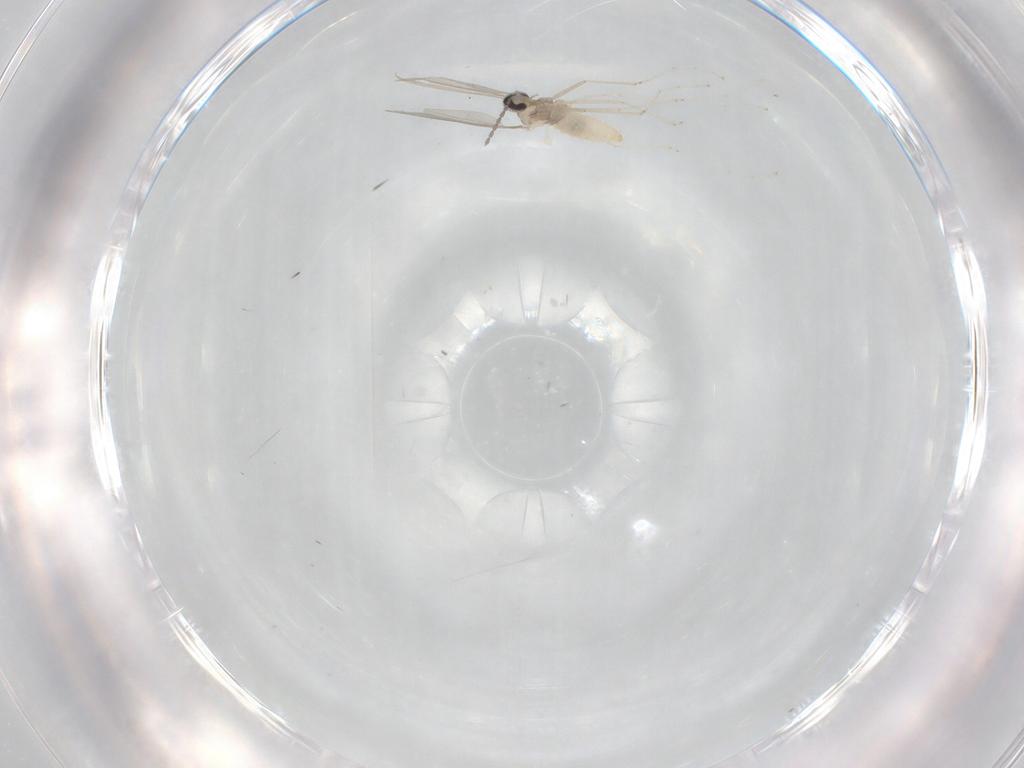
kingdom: Animalia
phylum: Arthropoda
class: Insecta
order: Diptera
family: Cecidomyiidae
